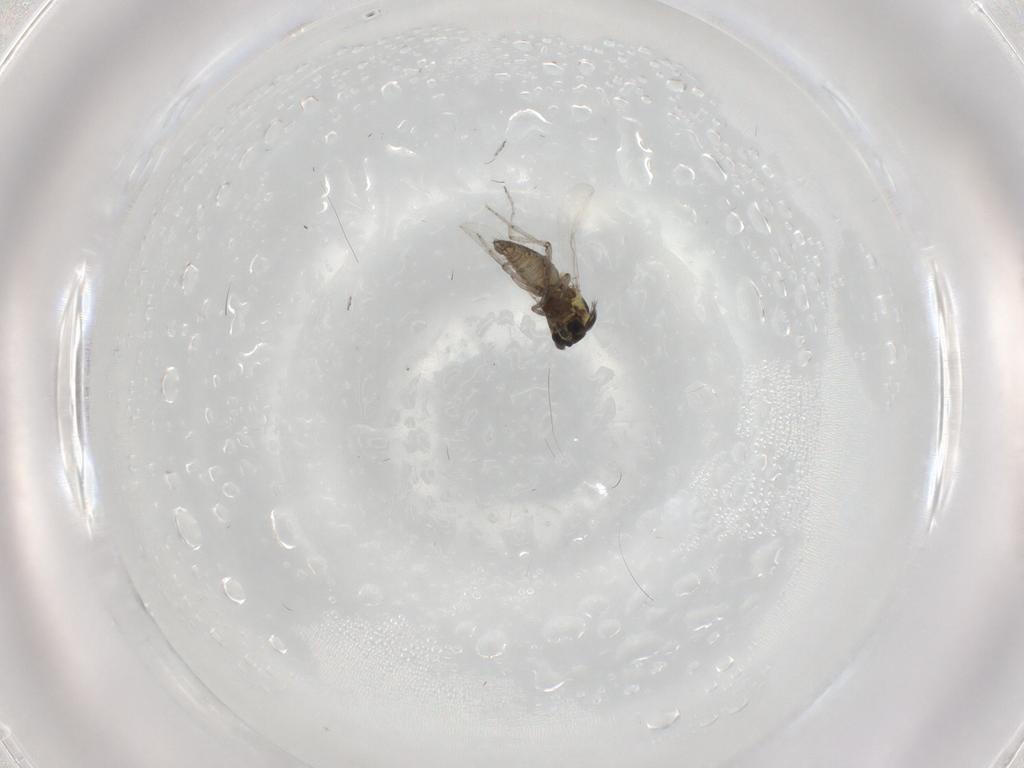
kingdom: Animalia
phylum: Arthropoda
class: Insecta
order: Diptera
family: Ceratopogonidae
